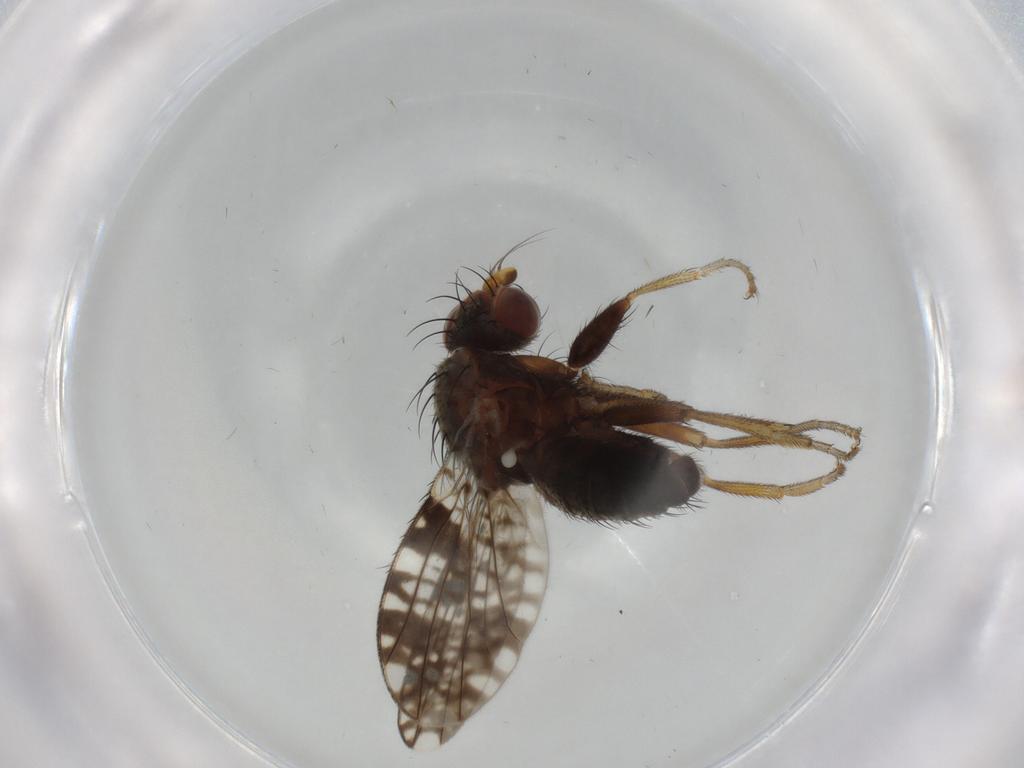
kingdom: Animalia
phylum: Arthropoda
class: Insecta
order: Diptera
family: Tephritidae
